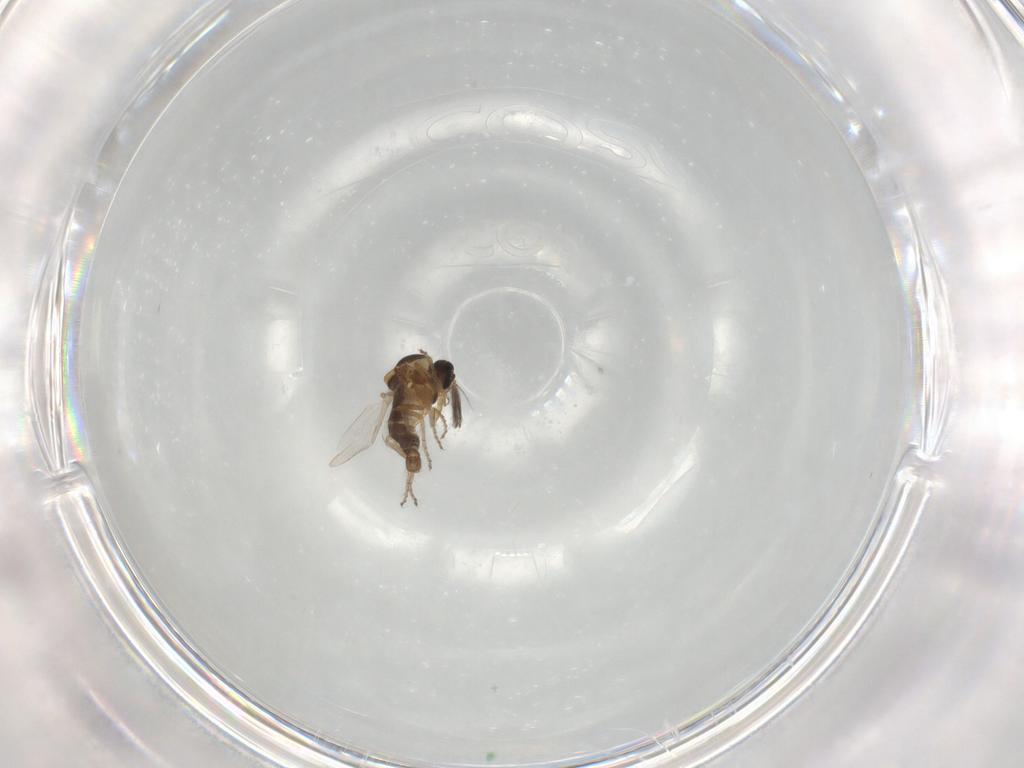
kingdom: Animalia
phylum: Arthropoda
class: Insecta
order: Diptera
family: Ceratopogonidae
